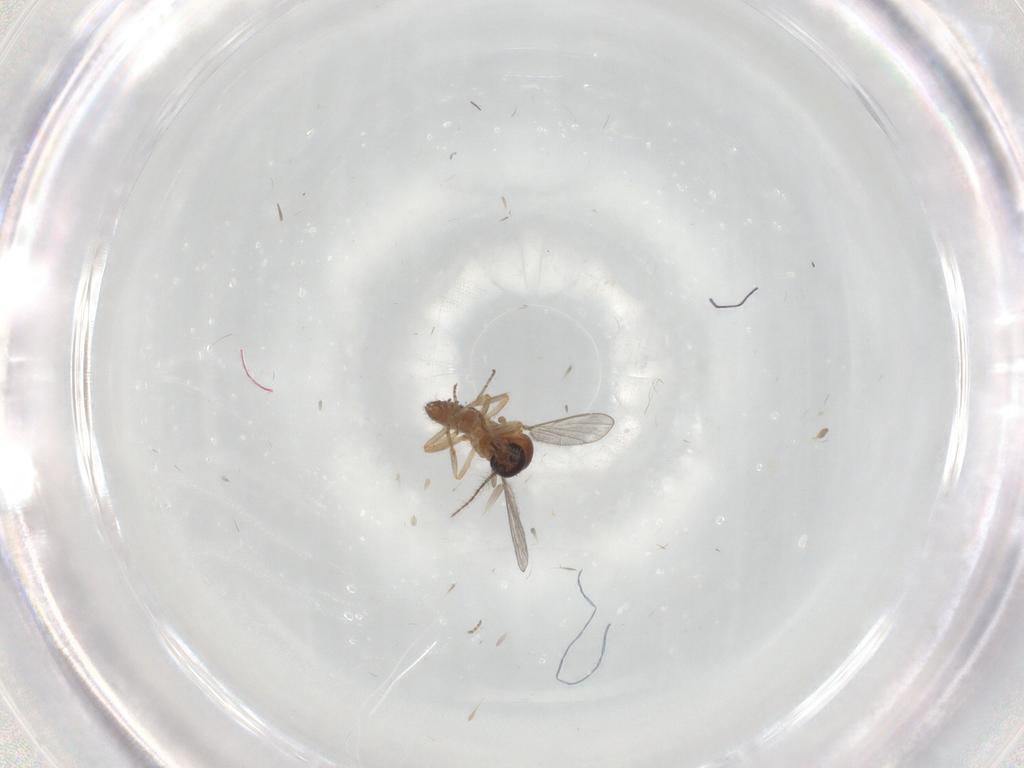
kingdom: Animalia
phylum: Arthropoda
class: Insecta
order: Diptera
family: Ceratopogonidae
